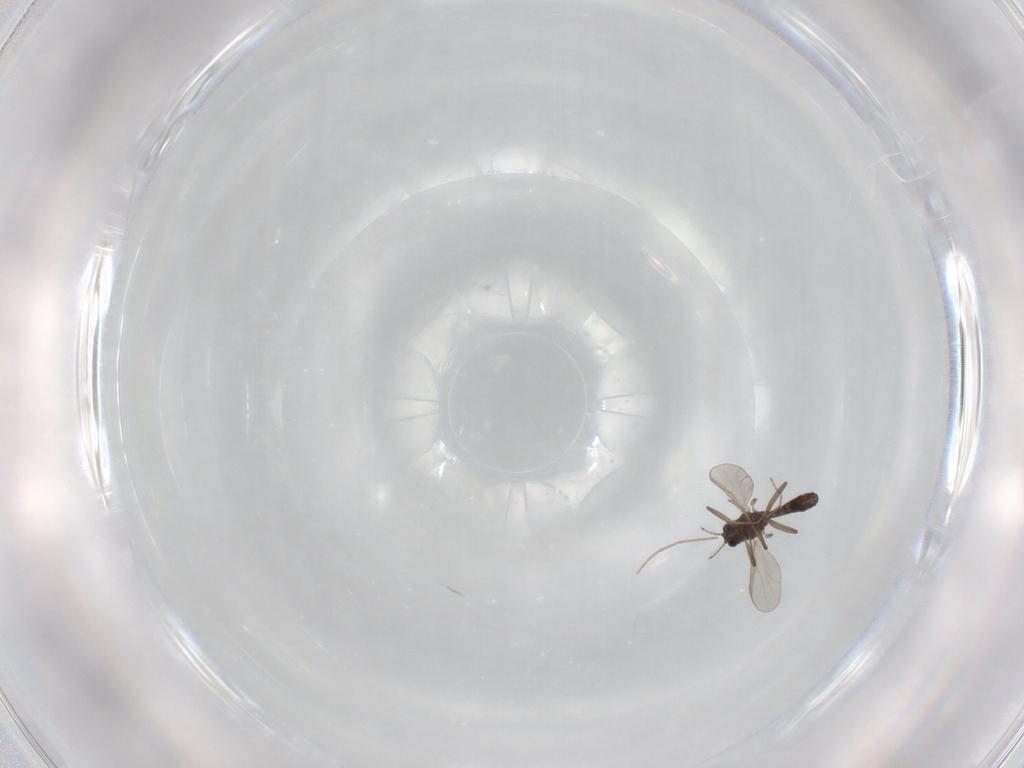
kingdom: Animalia
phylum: Arthropoda
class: Insecta
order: Diptera
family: Chironomidae
